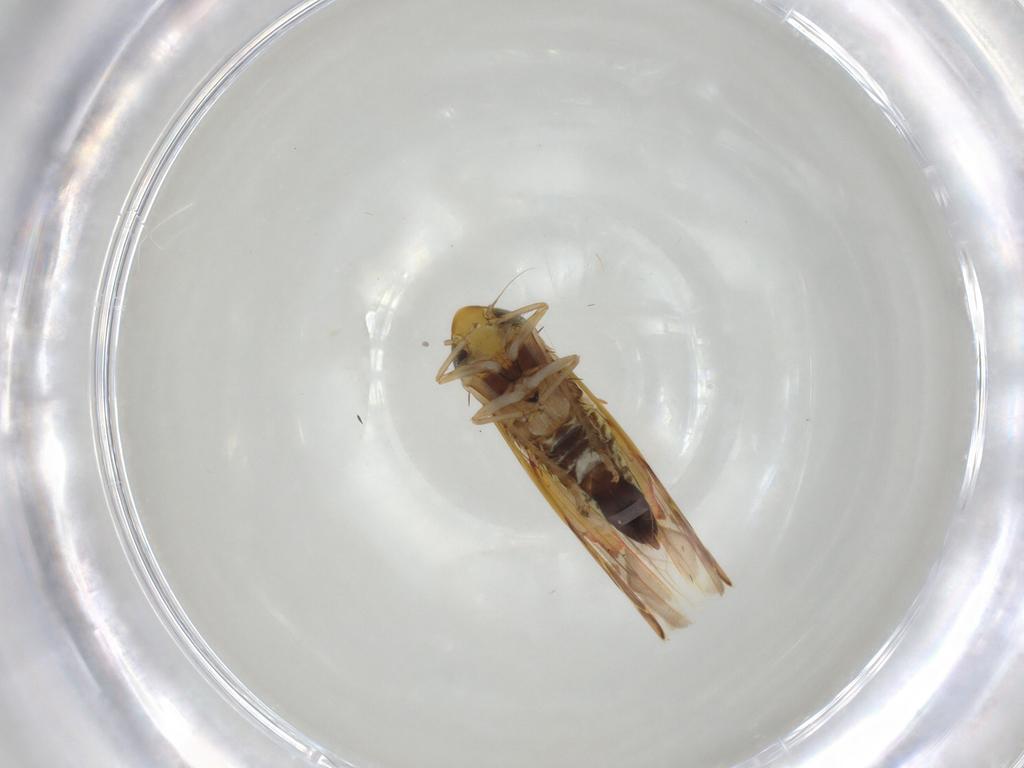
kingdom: Animalia
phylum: Arthropoda
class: Insecta
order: Hemiptera
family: Cicadellidae
